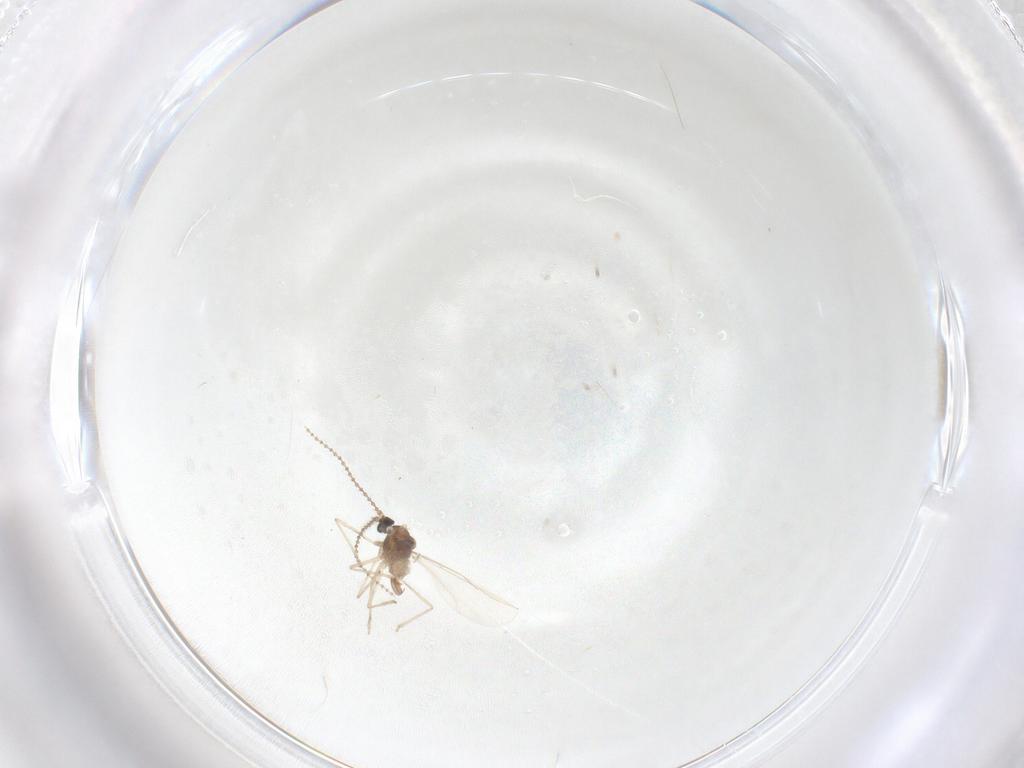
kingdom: Animalia
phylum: Arthropoda
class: Insecta
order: Diptera
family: Cecidomyiidae
